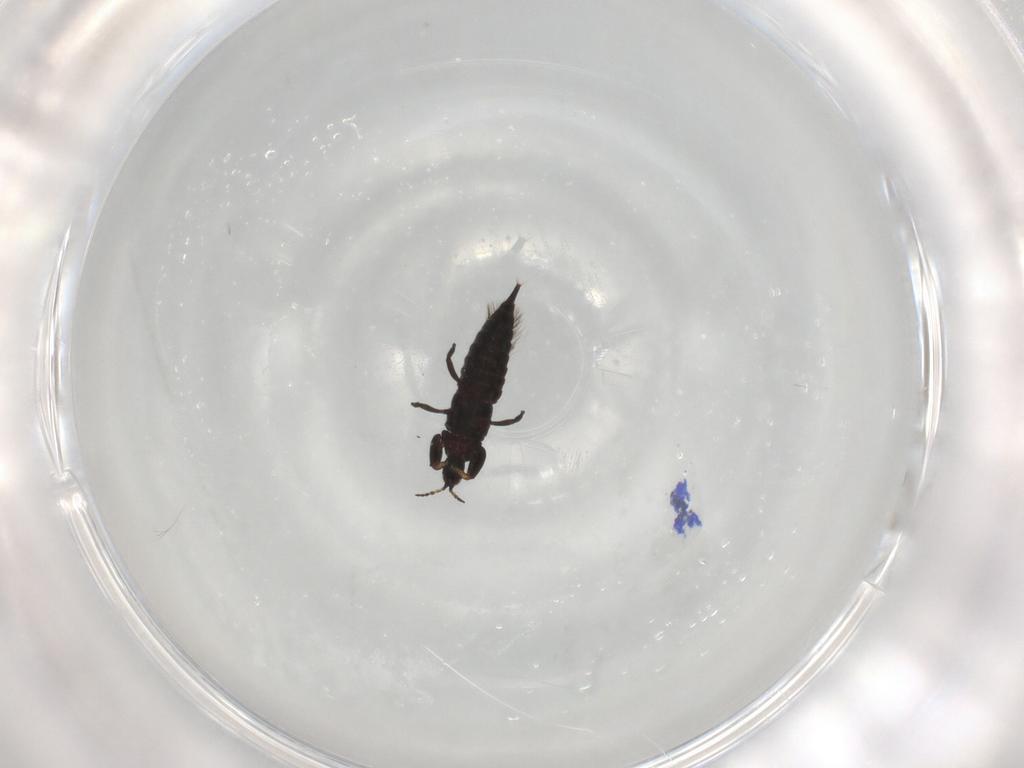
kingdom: Animalia
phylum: Arthropoda
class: Insecta
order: Thysanoptera
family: Phlaeothripidae
